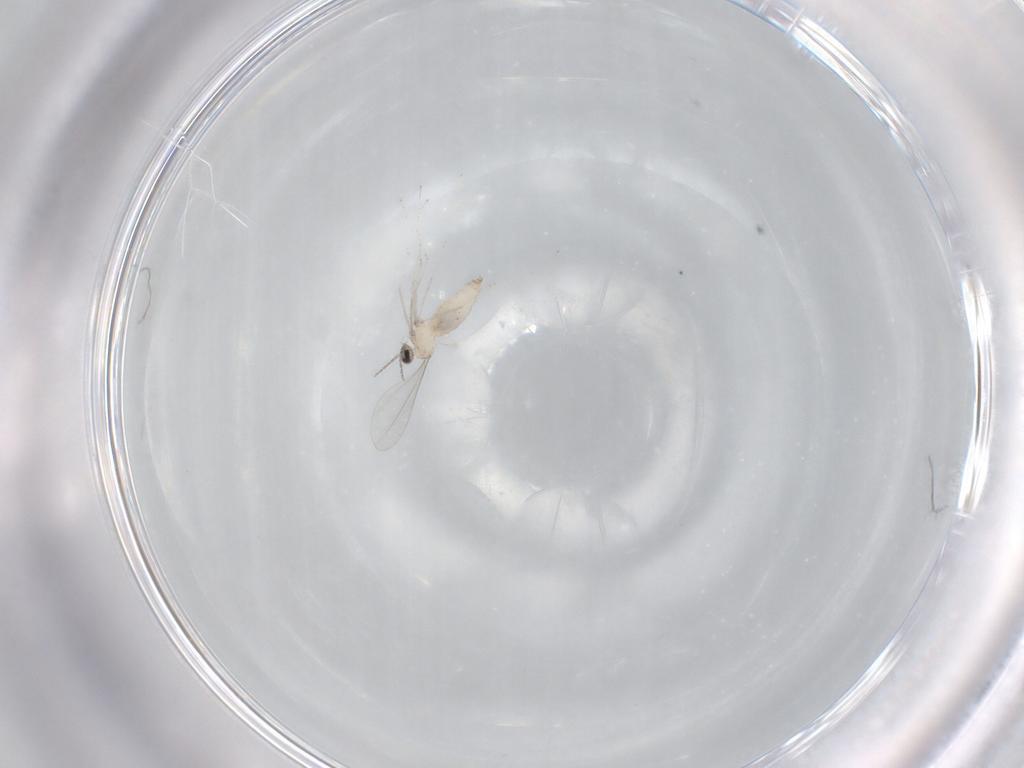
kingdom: Animalia
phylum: Arthropoda
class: Insecta
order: Diptera
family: Cecidomyiidae
